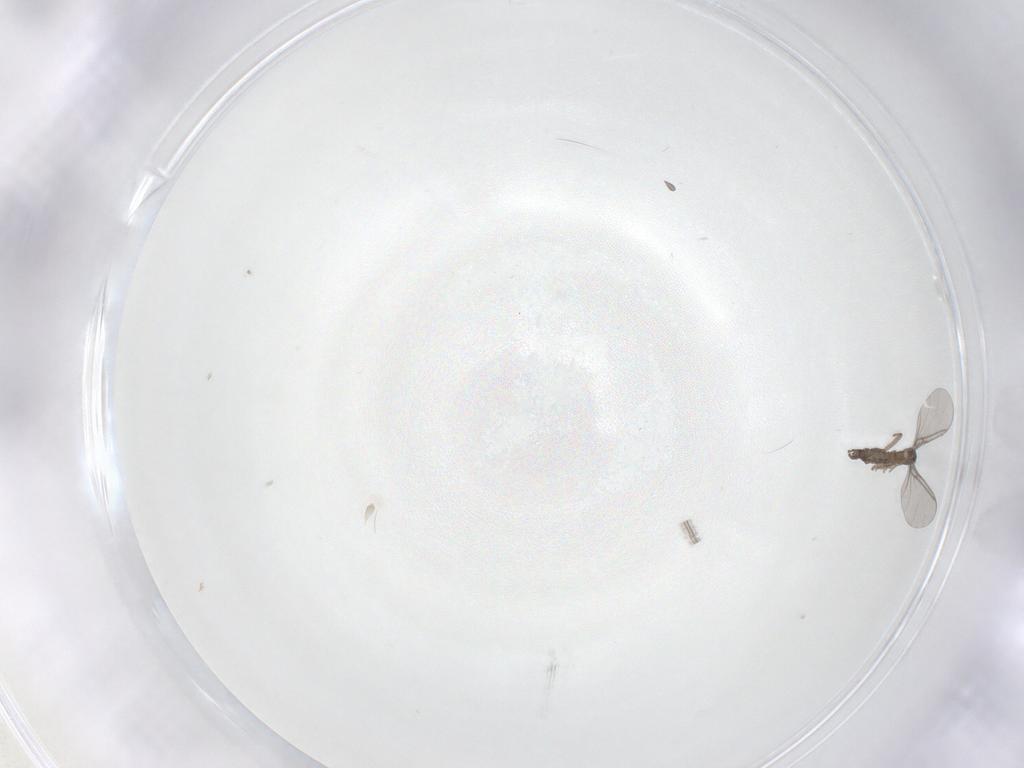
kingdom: Animalia
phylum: Arthropoda
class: Insecta
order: Diptera
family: Sciaridae
